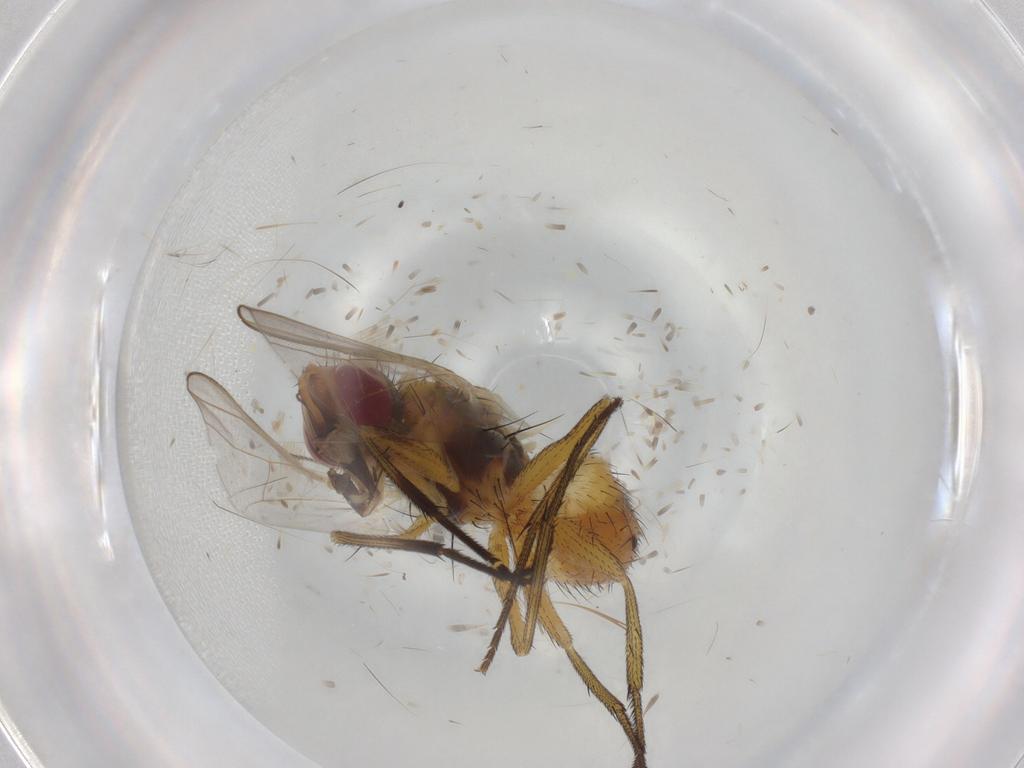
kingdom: Animalia
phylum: Arthropoda
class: Insecta
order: Diptera
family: Muscidae
